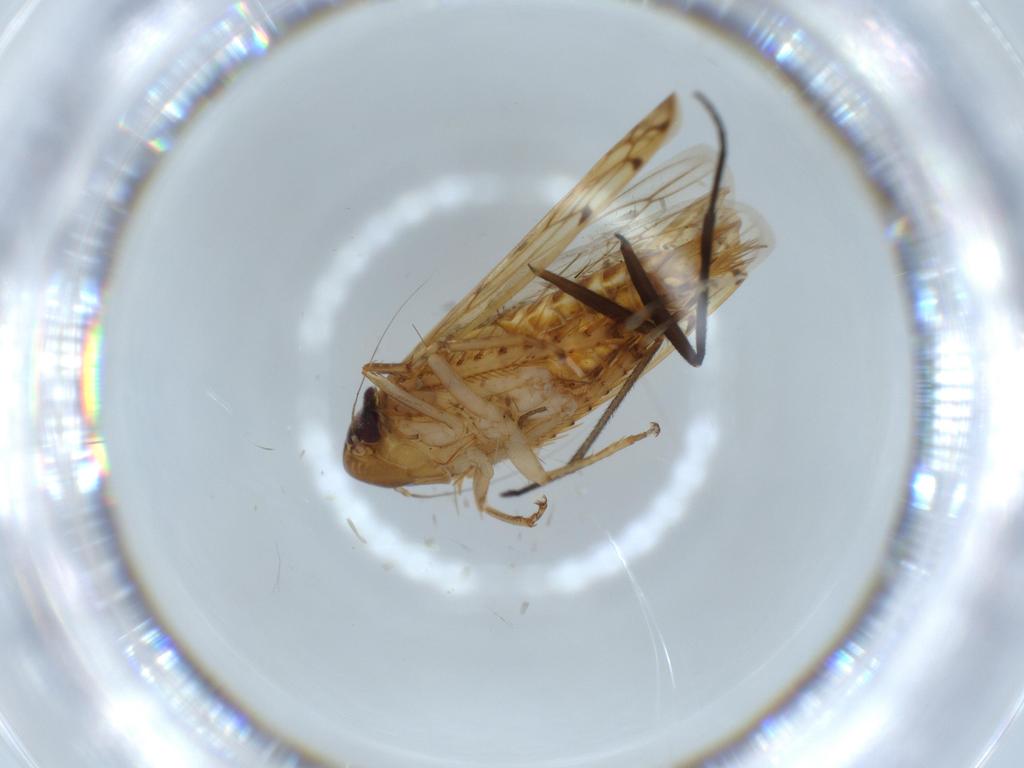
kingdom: Animalia
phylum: Arthropoda
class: Insecta
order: Hemiptera
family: Cicadellidae
